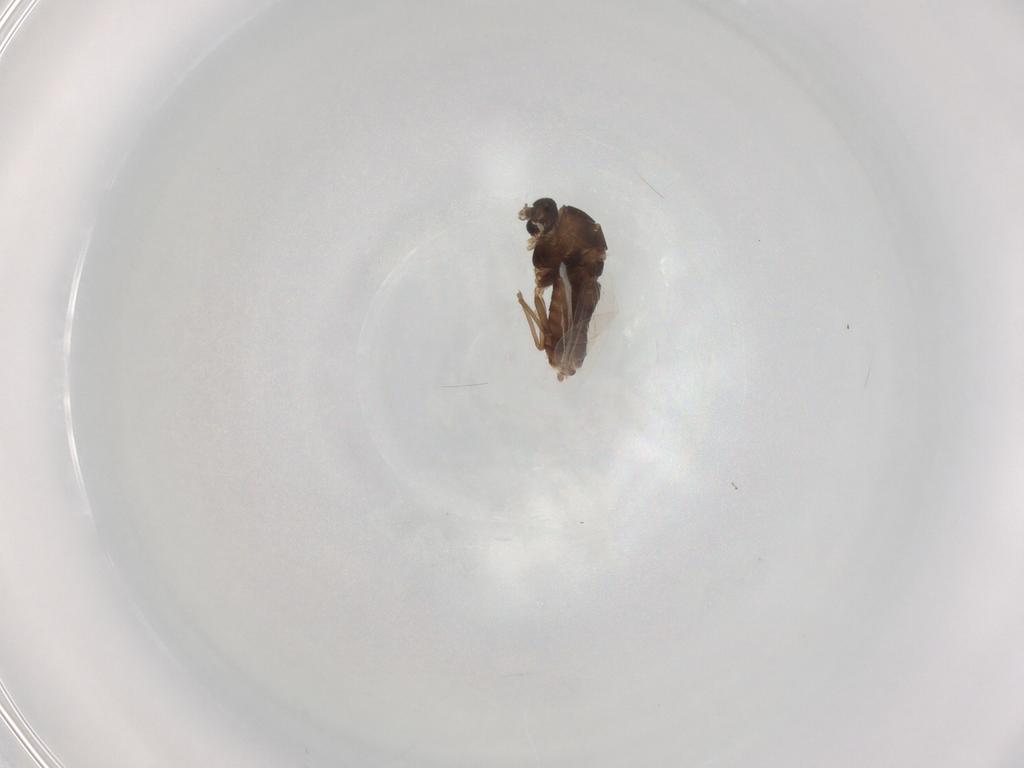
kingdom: Animalia
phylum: Arthropoda
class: Insecta
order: Diptera
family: Chironomidae
